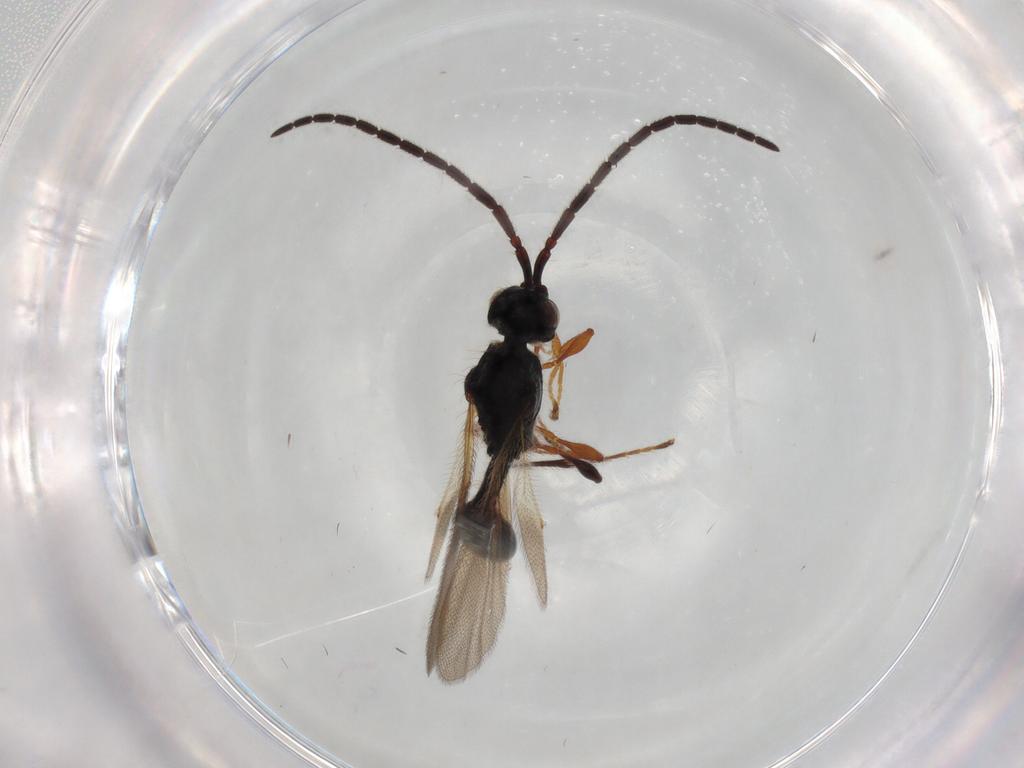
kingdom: Animalia
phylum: Arthropoda
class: Insecta
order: Hymenoptera
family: Diapriidae
